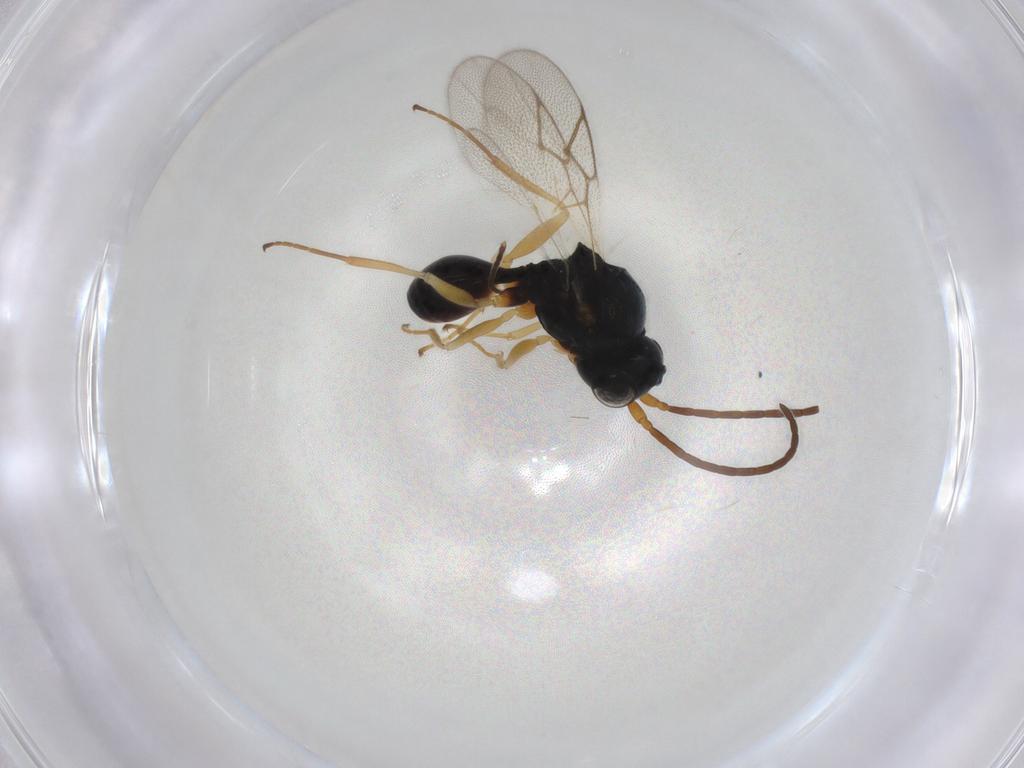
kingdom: Animalia
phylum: Arthropoda
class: Insecta
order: Hymenoptera
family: Figitidae
